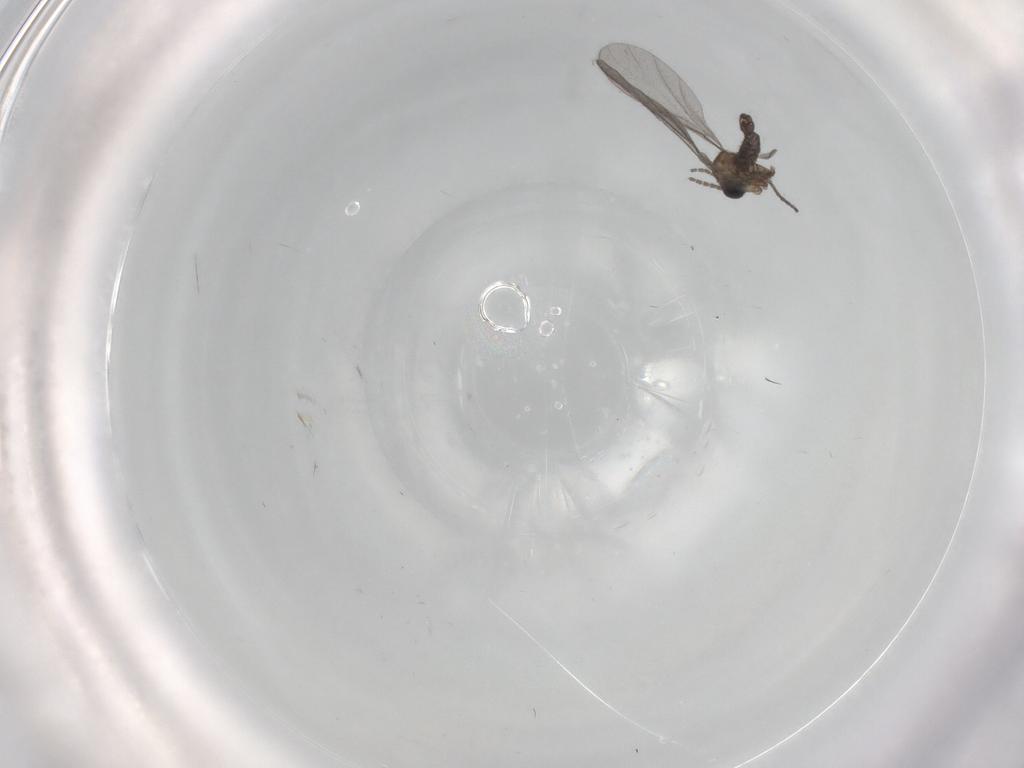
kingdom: Animalia
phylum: Arthropoda
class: Insecta
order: Diptera
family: Sciaridae
